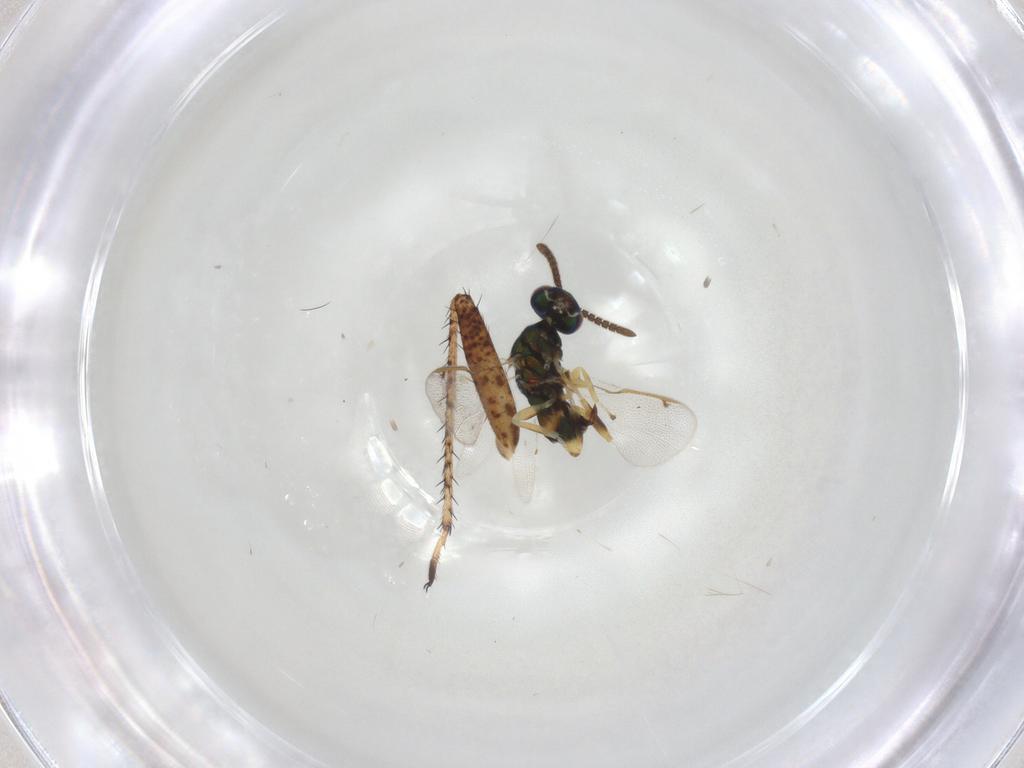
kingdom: Animalia
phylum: Arthropoda
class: Insecta
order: Hymenoptera
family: Torymidae
